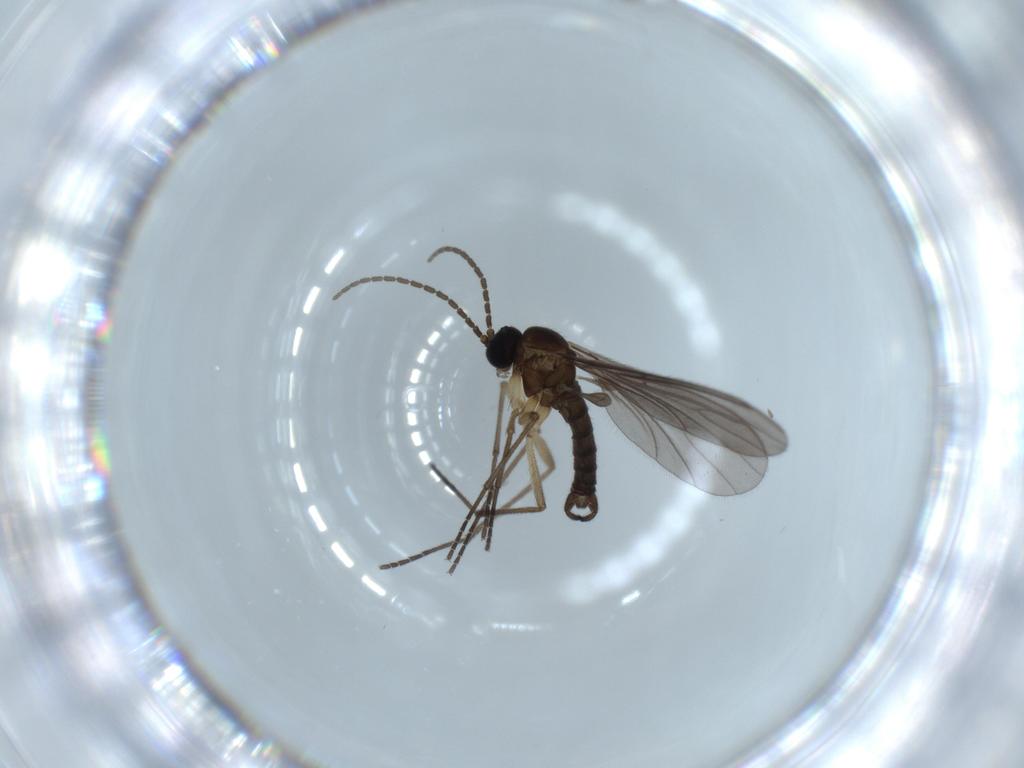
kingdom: Animalia
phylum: Arthropoda
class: Insecta
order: Diptera
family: Sciaridae
